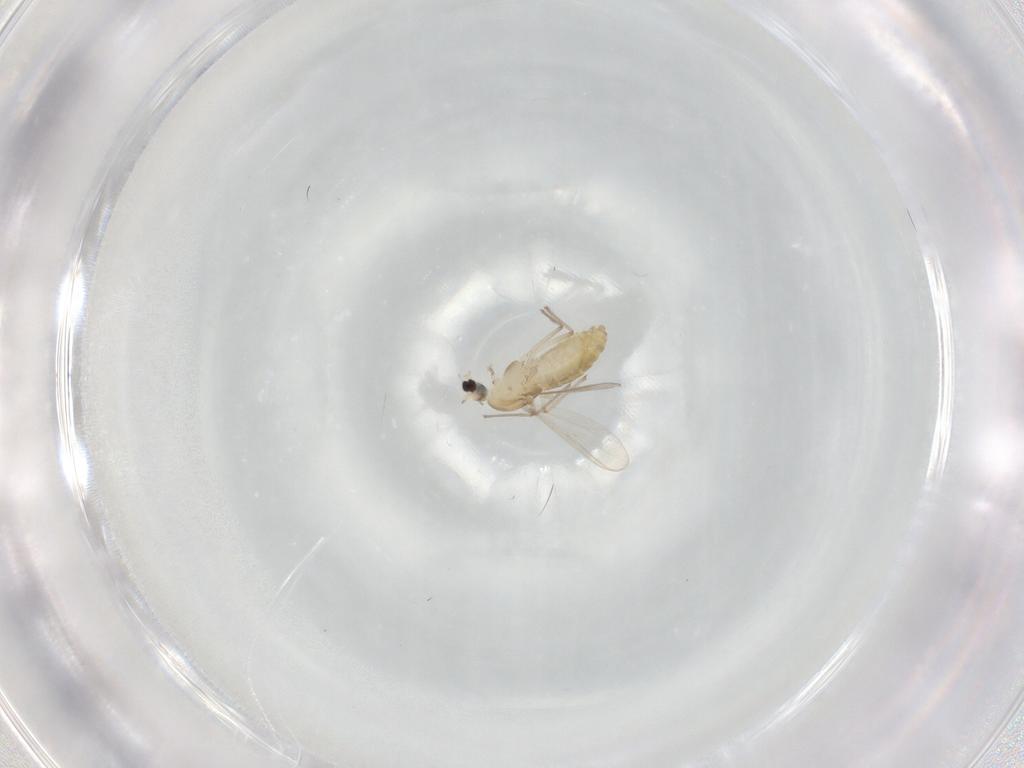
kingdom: Animalia
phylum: Arthropoda
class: Insecta
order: Diptera
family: Chironomidae
